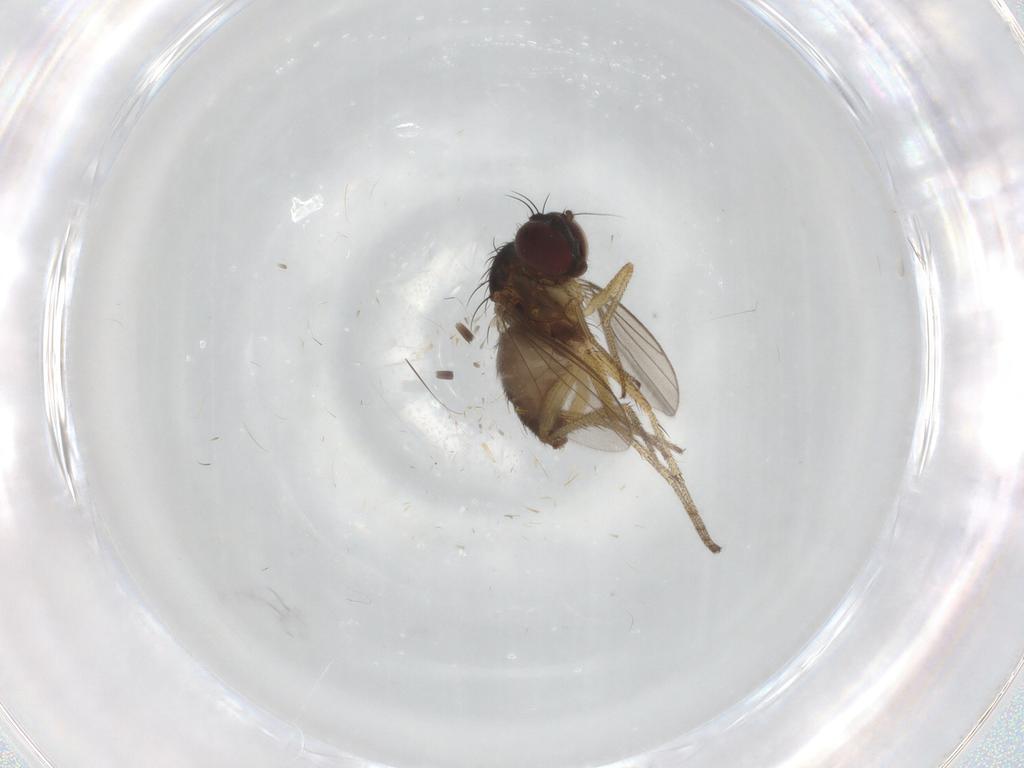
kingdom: Animalia
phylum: Arthropoda
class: Insecta
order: Diptera
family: Dolichopodidae
